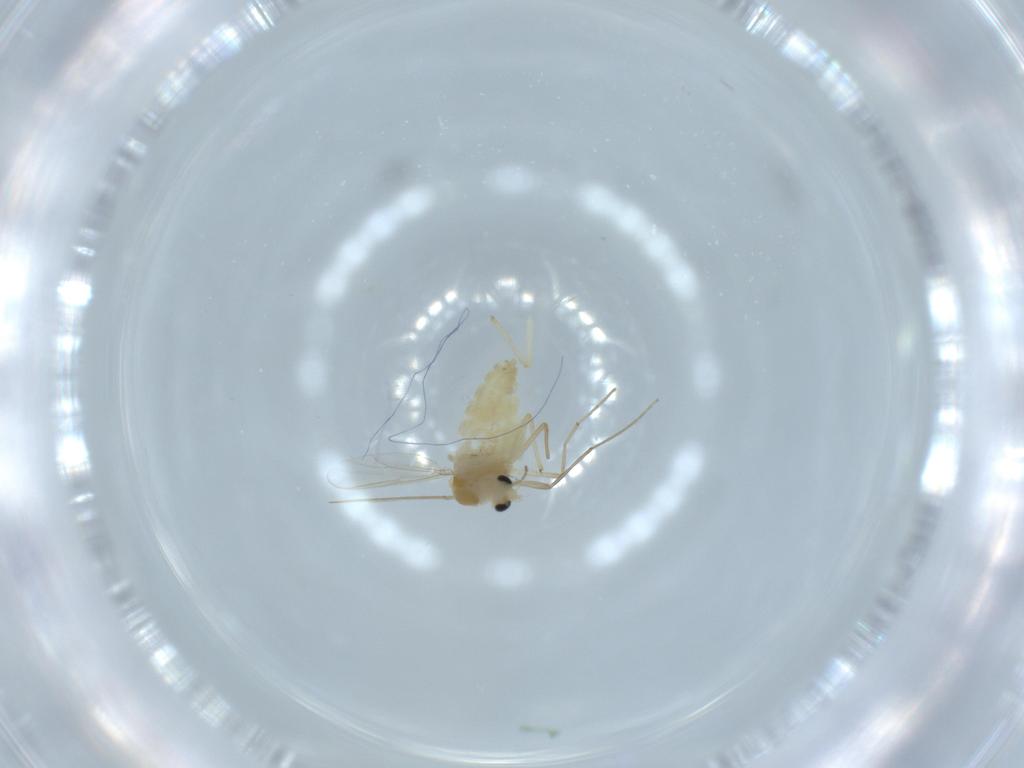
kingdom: Animalia
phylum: Arthropoda
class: Insecta
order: Diptera
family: Chironomidae
